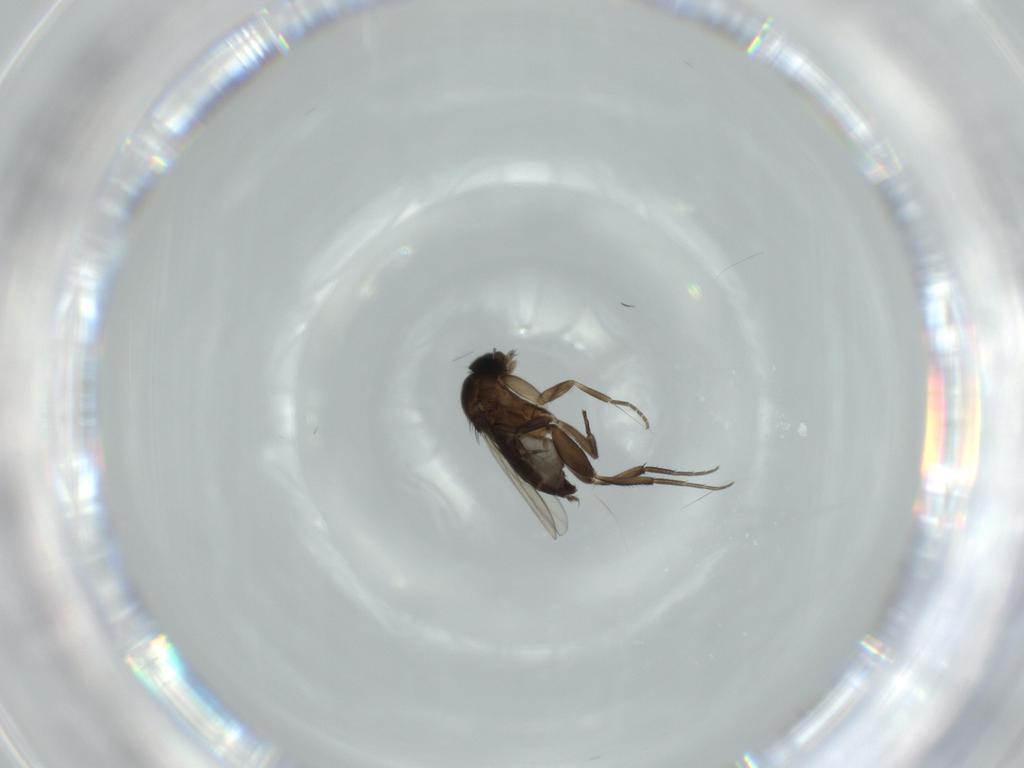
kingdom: Animalia
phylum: Arthropoda
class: Insecta
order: Diptera
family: Phoridae
